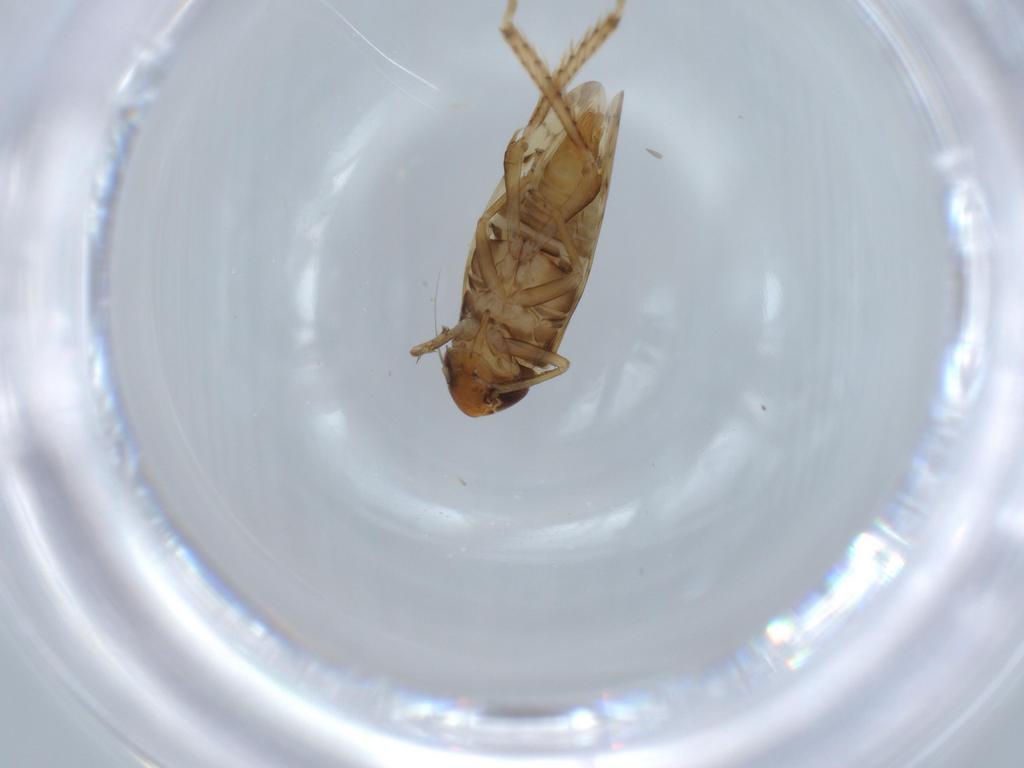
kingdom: Animalia
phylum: Arthropoda
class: Insecta
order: Hemiptera
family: Cicadellidae
